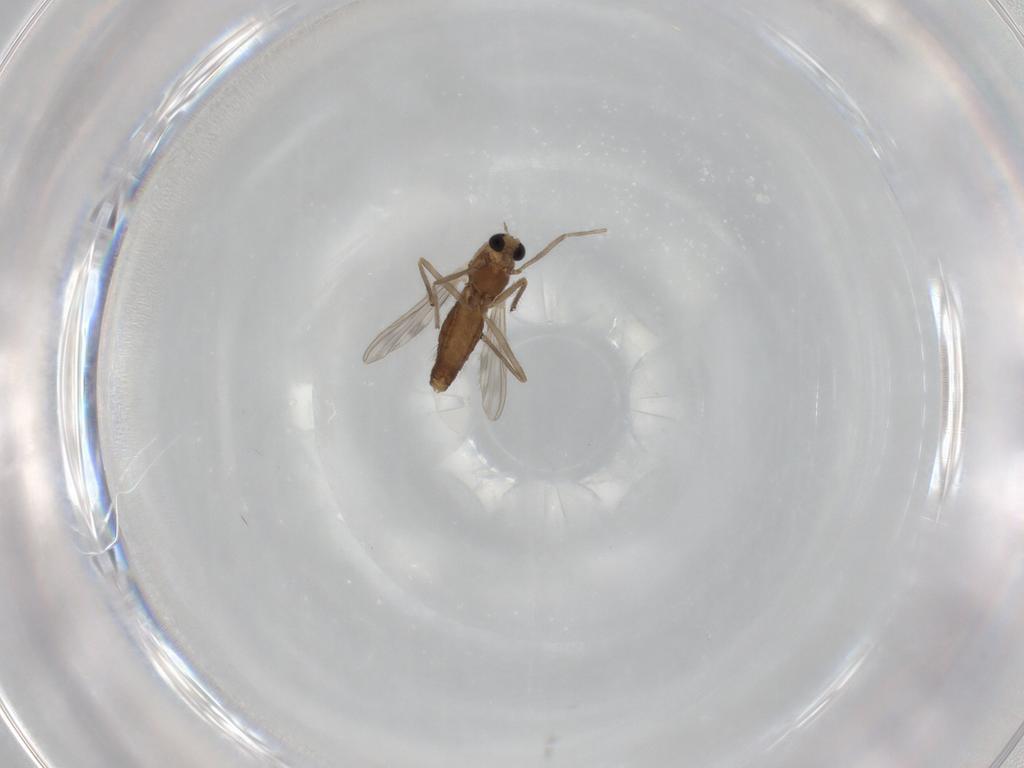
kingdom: Animalia
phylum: Arthropoda
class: Insecta
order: Diptera
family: Chironomidae
